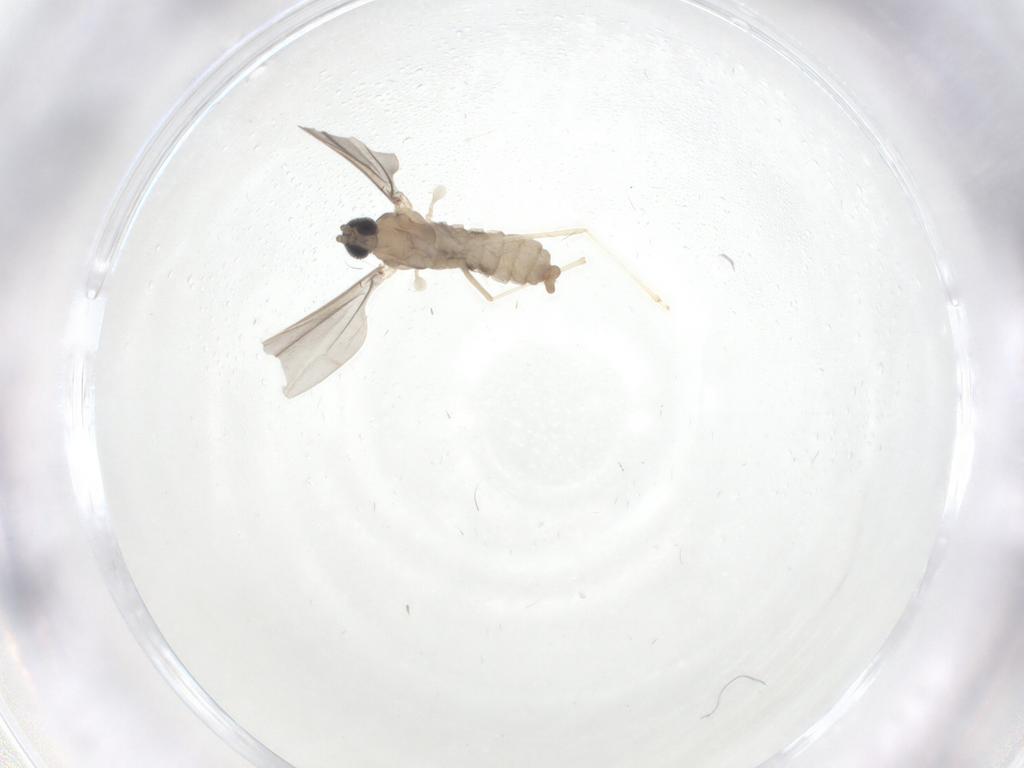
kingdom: Animalia
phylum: Arthropoda
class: Insecta
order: Diptera
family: Cecidomyiidae
